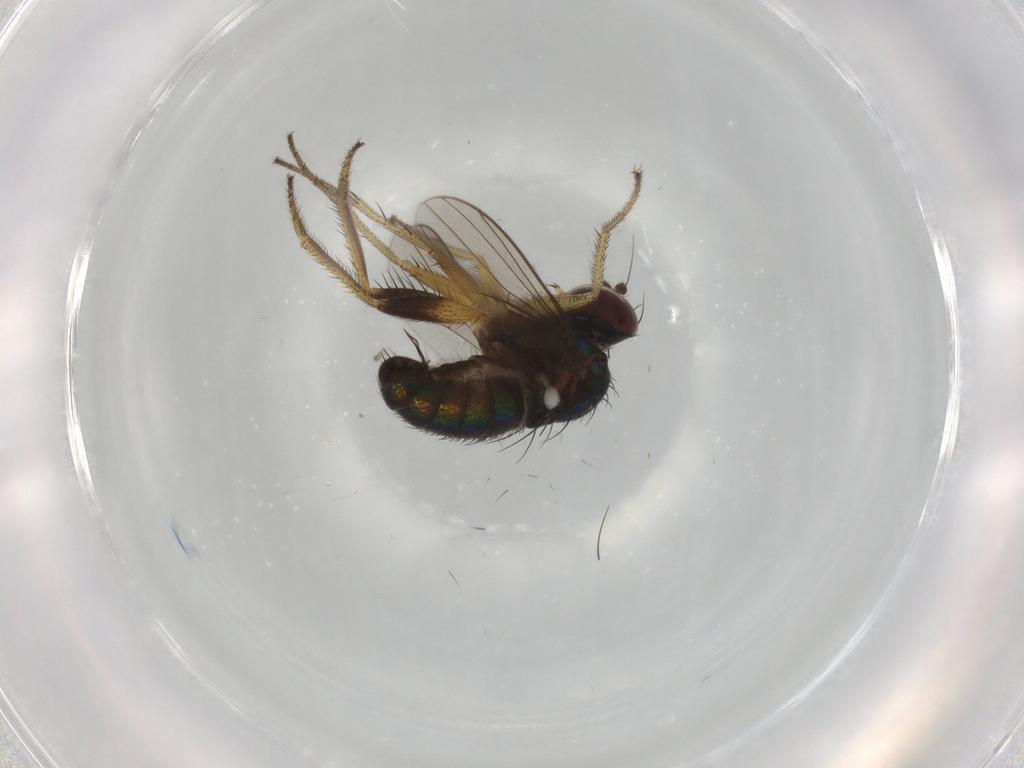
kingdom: Animalia
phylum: Arthropoda
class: Insecta
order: Diptera
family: Dolichopodidae
